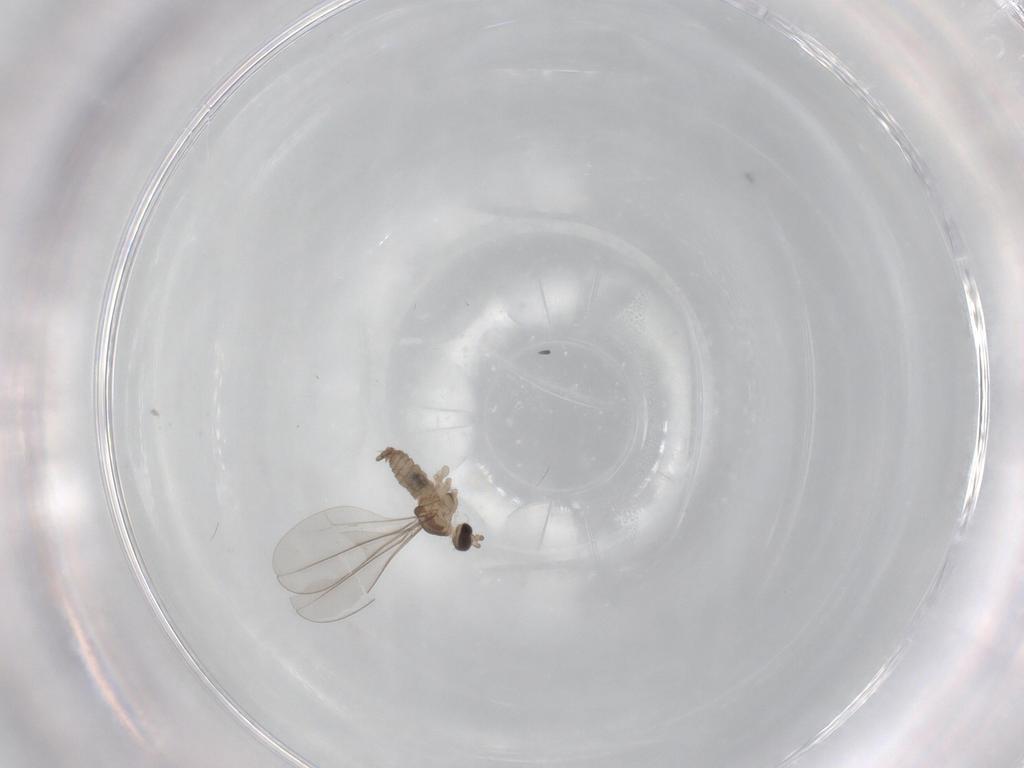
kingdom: Animalia
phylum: Arthropoda
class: Insecta
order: Diptera
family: Cecidomyiidae
